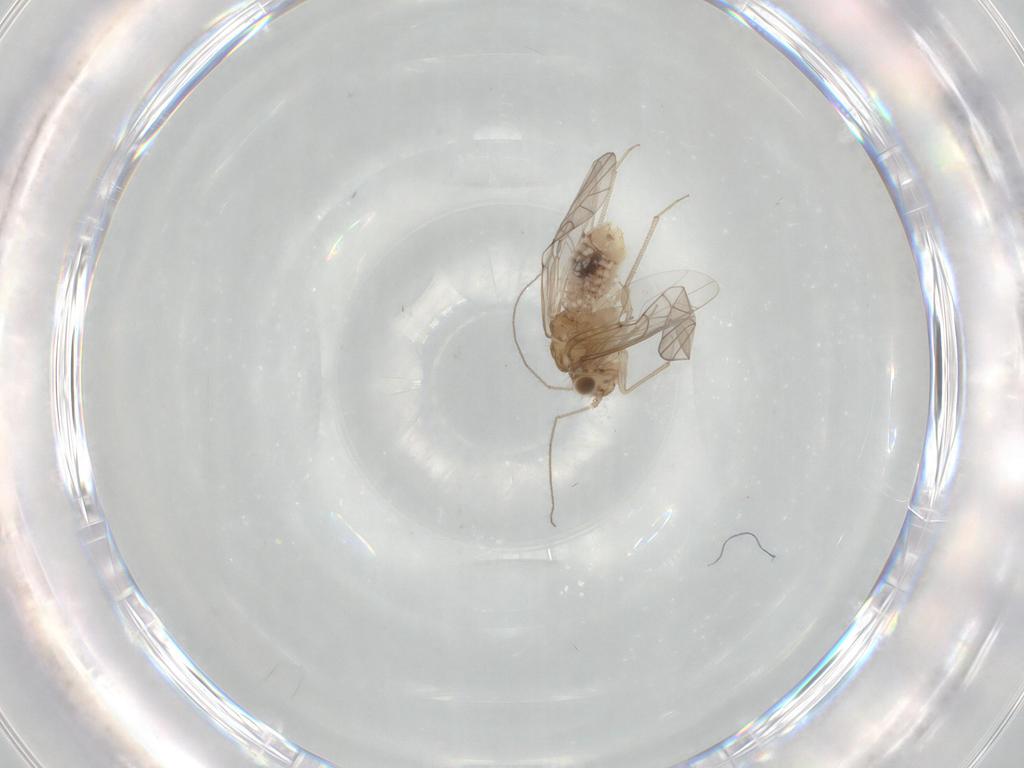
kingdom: Animalia
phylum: Arthropoda
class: Insecta
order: Psocodea
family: Lachesillidae
